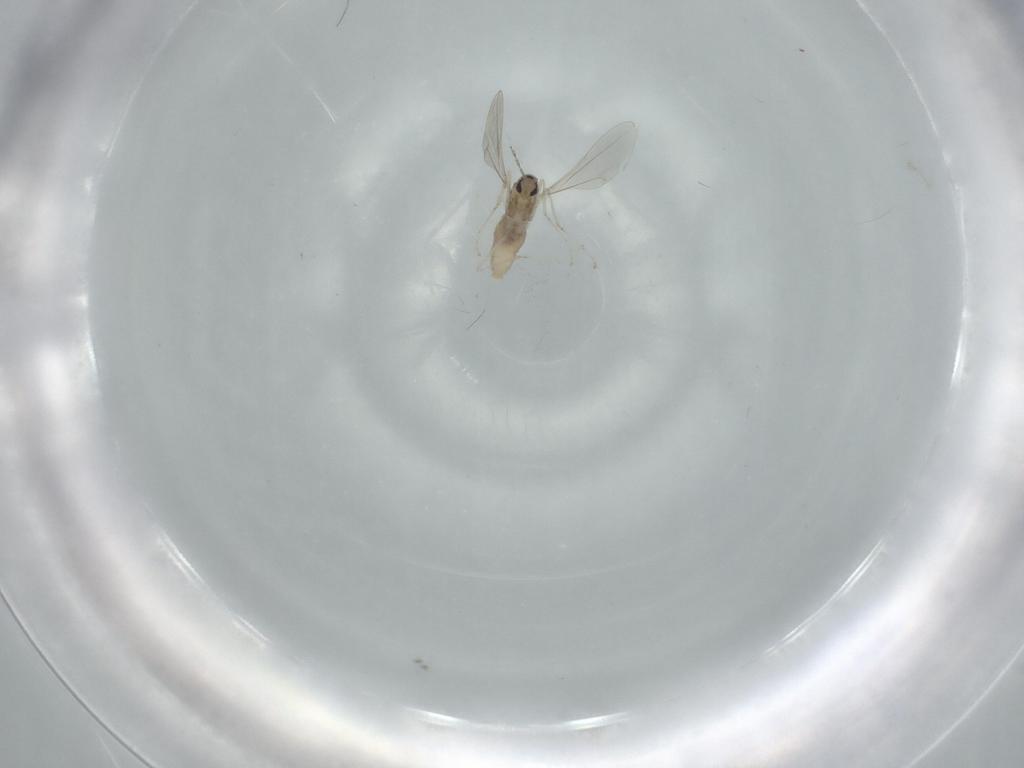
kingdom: Animalia
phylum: Arthropoda
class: Insecta
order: Diptera
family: Cecidomyiidae
